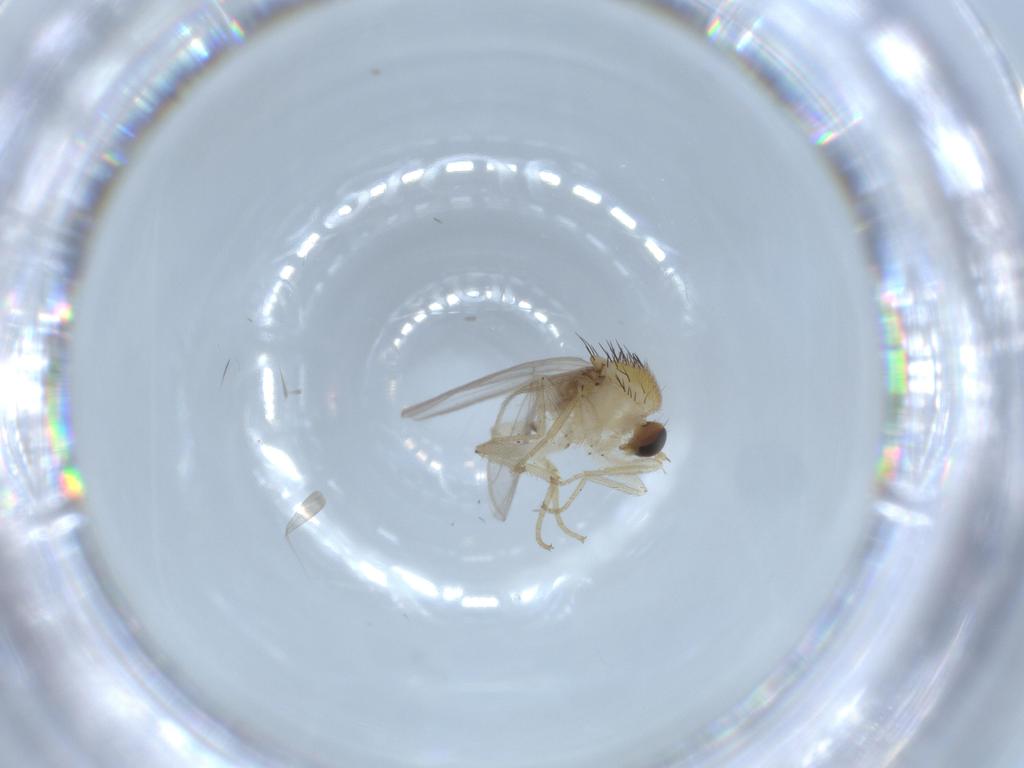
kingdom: Animalia
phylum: Arthropoda
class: Insecta
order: Diptera
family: Hybotidae
